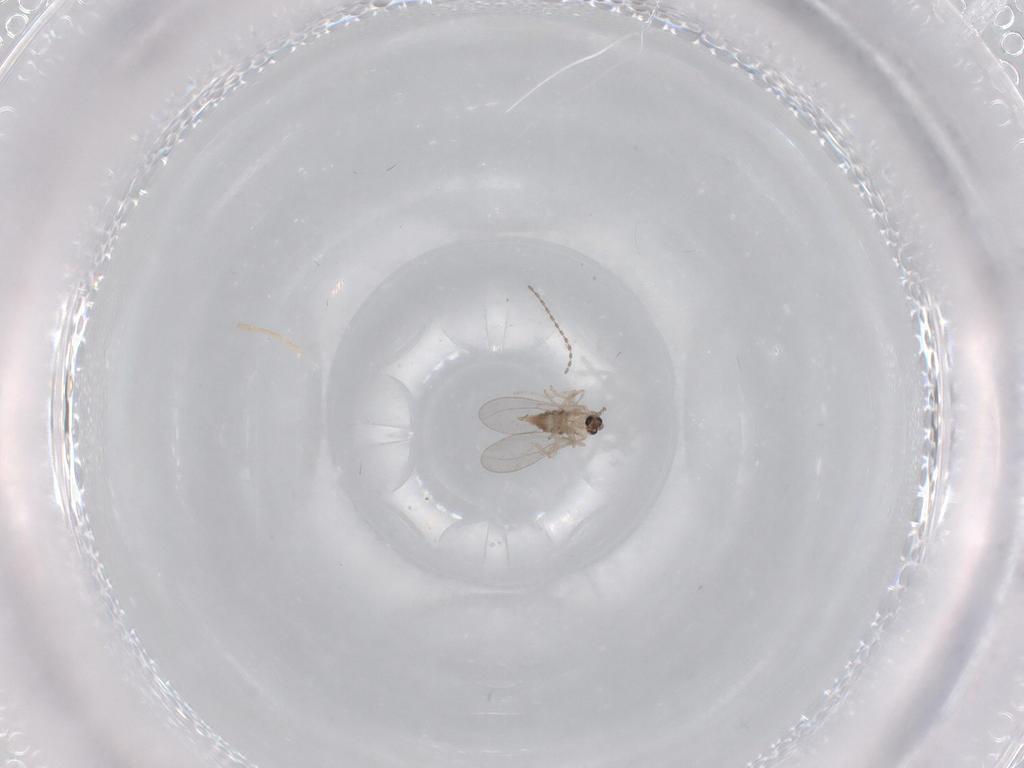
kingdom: Animalia
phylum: Arthropoda
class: Insecta
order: Diptera
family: Cecidomyiidae
